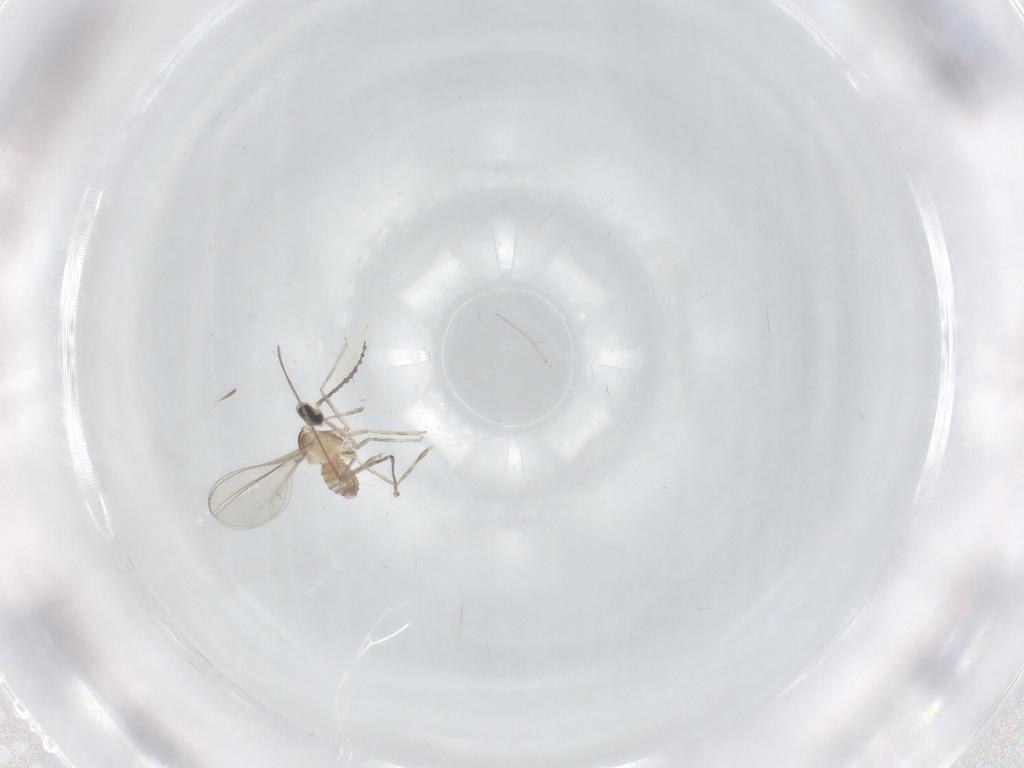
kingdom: Animalia
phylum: Arthropoda
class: Insecta
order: Diptera
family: Cecidomyiidae
